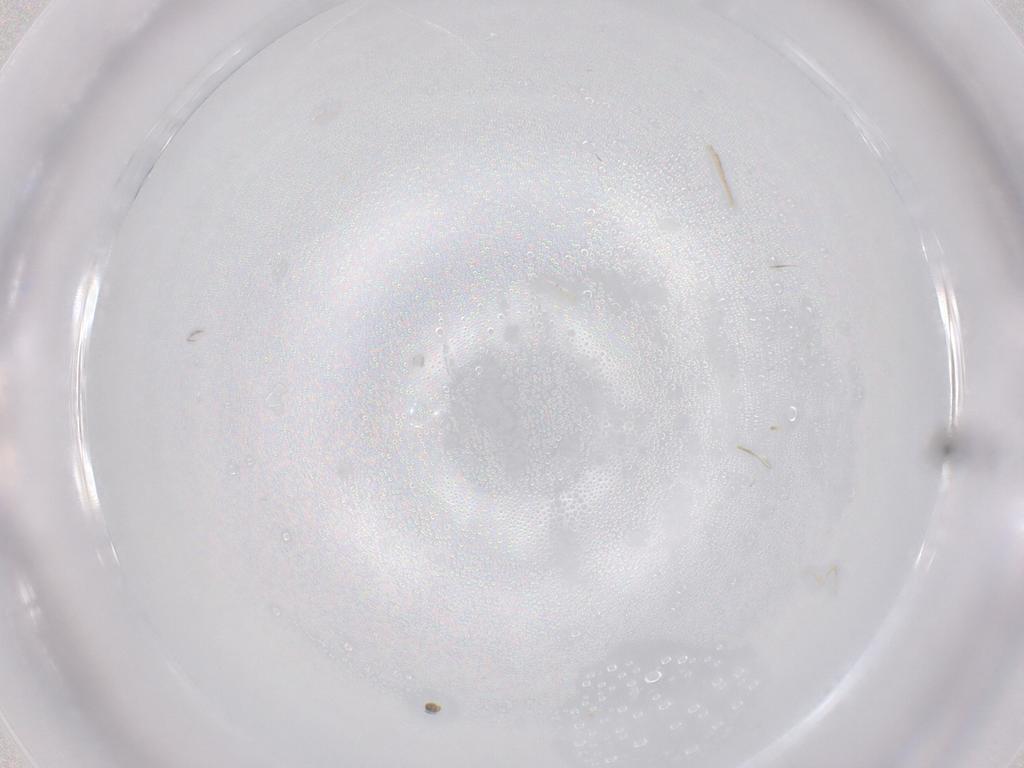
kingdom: Animalia
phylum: Arthropoda
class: Insecta
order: Hymenoptera
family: Mymaridae
